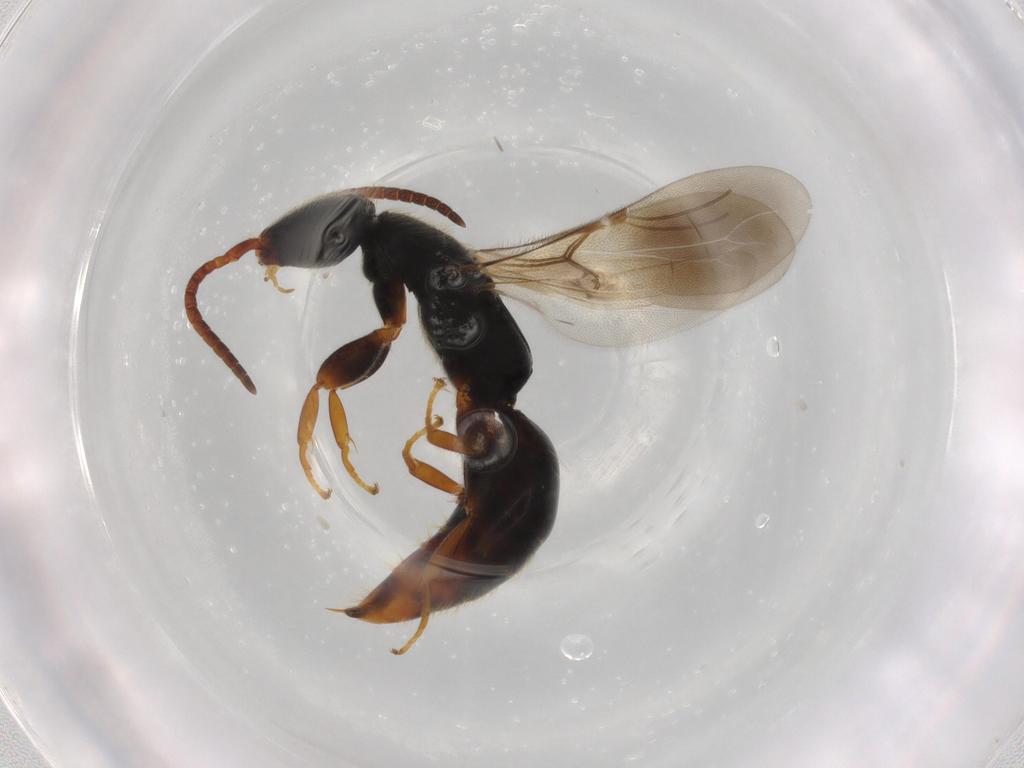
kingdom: Animalia
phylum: Arthropoda
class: Insecta
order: Hymenoptera
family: Bethylidae
